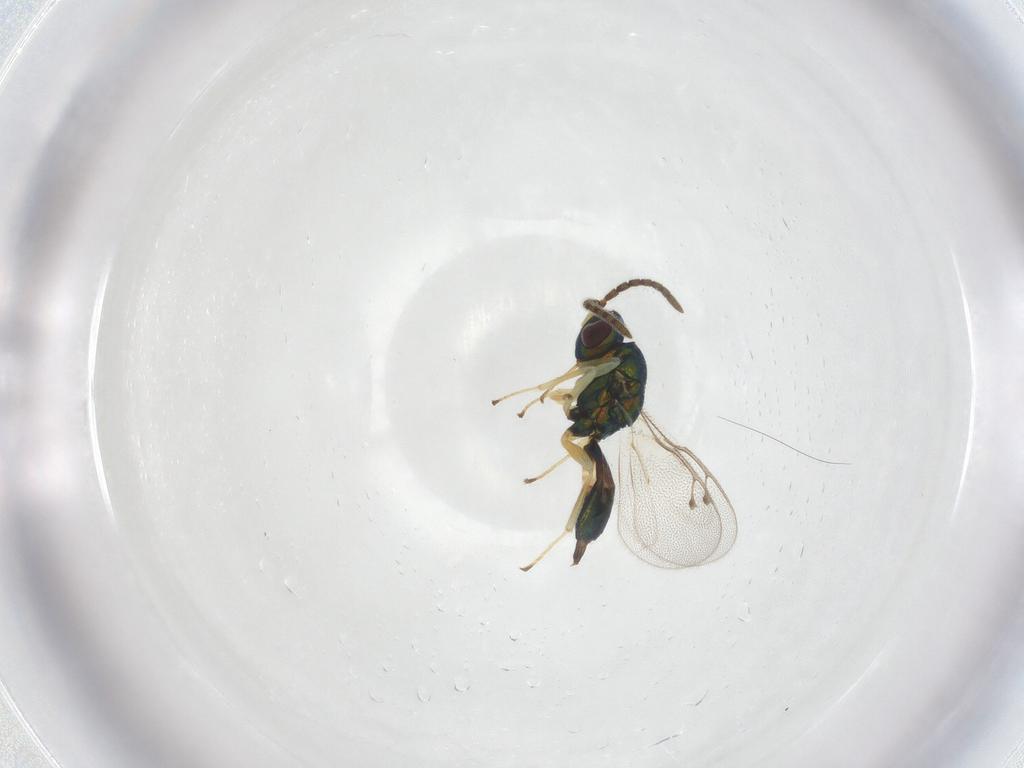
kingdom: Animalia
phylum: Arthropoda
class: Insecta
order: Hymenoptera
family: Pteromalidae
